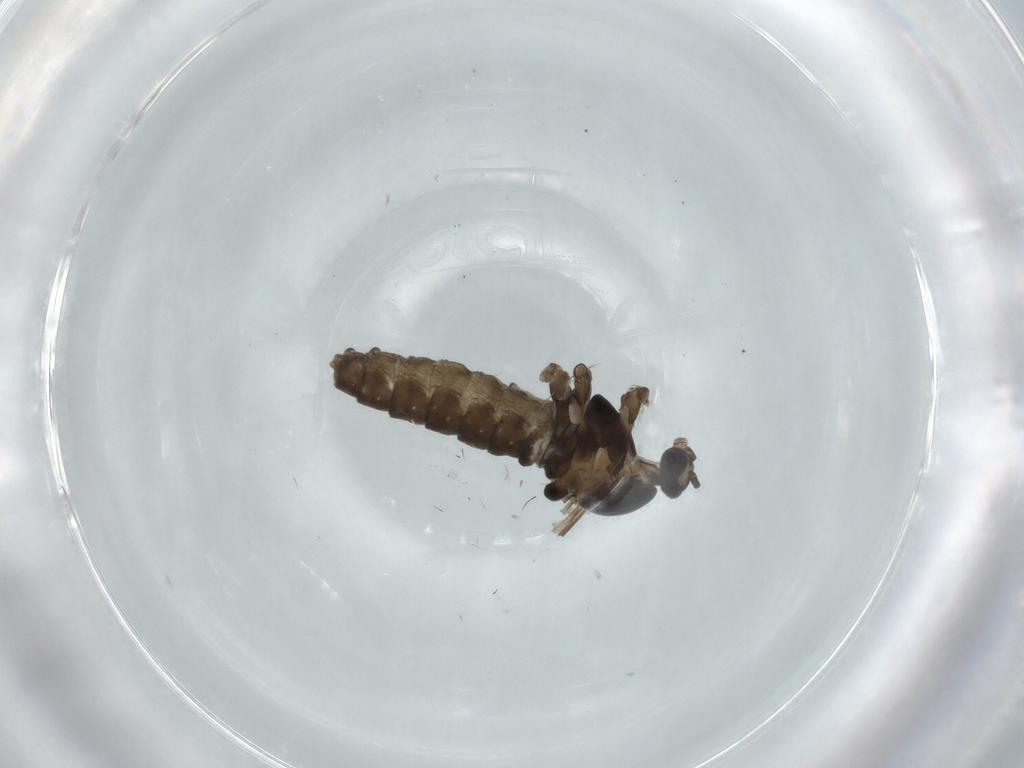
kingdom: Animalia
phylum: Arthropoda
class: Insecta
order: Diptera
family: Cecidomyiidae
